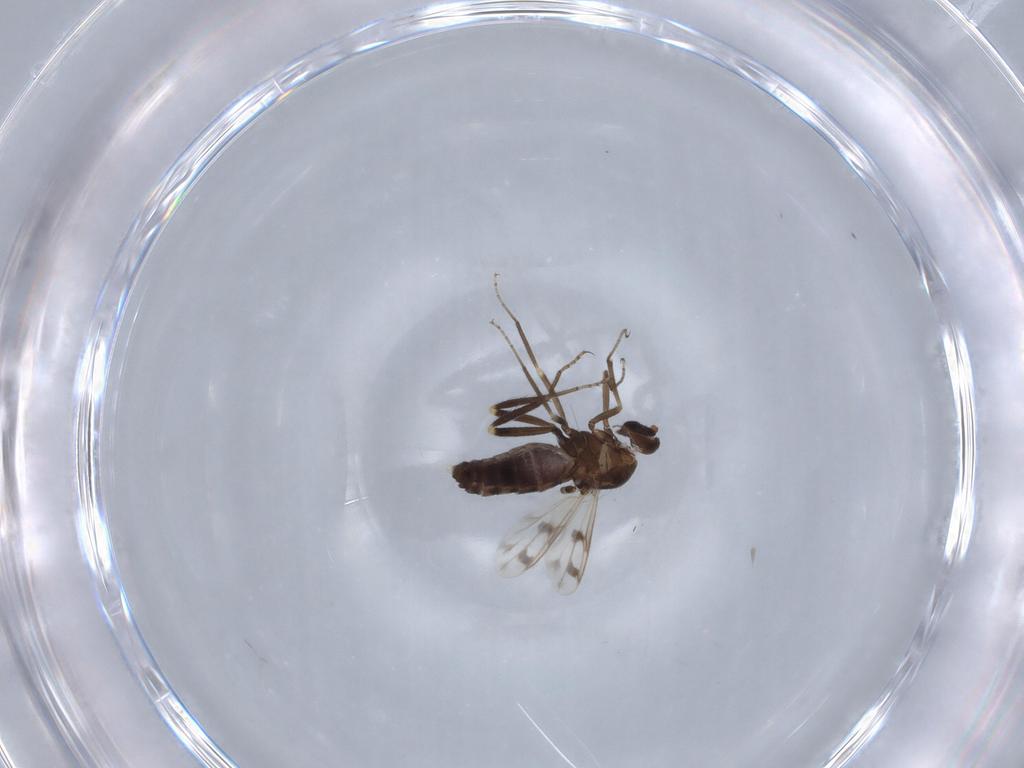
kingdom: Animalia
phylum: Arthropoda
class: Insecta
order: Diptera
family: Ceratopogonidae
